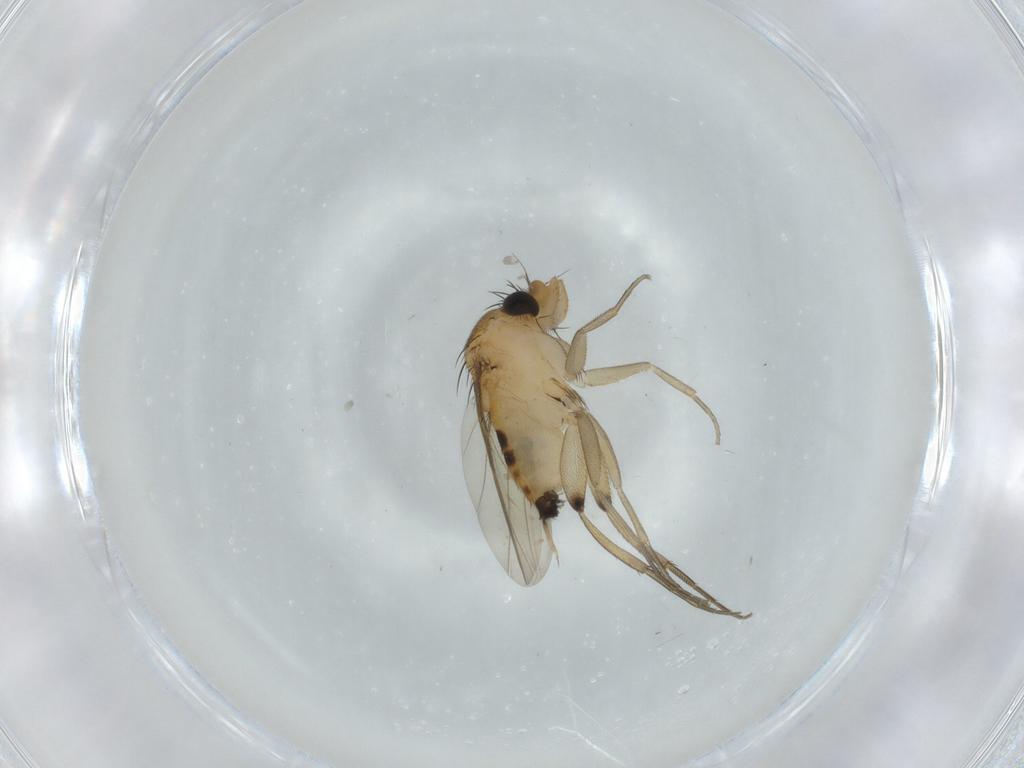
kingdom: Animalia
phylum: Arthropoda
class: Insecta
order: Diptera
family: Phoridae
